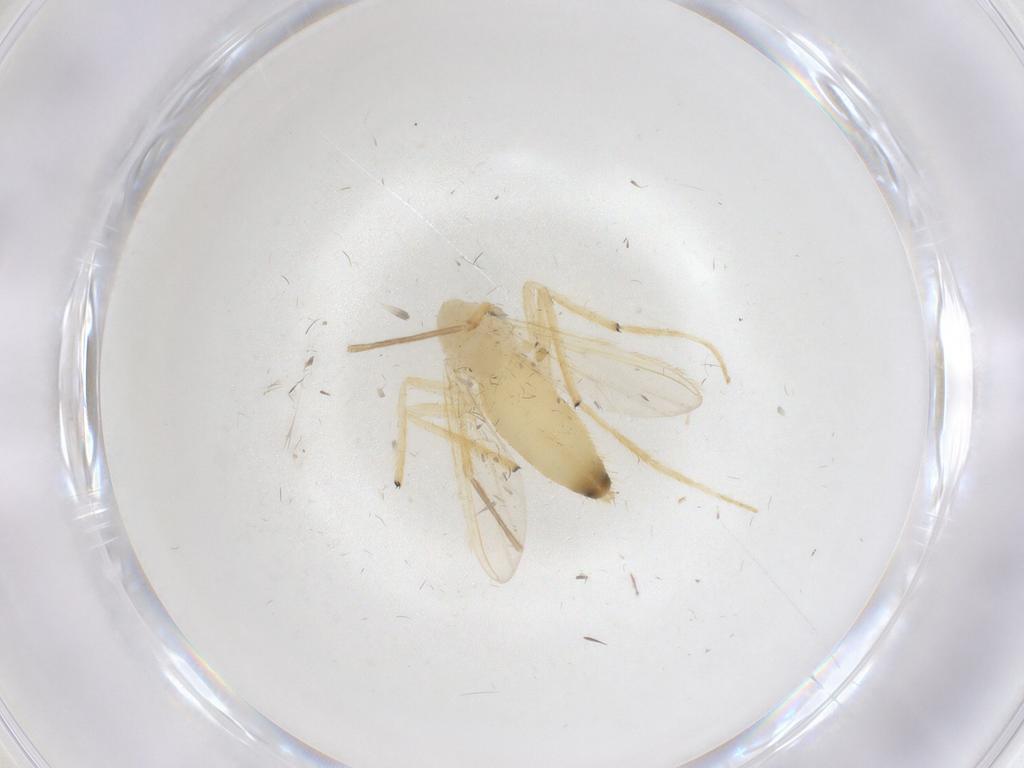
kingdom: Animalia
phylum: Arthropoda
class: Insecta
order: Diptera
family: Chironomidae
